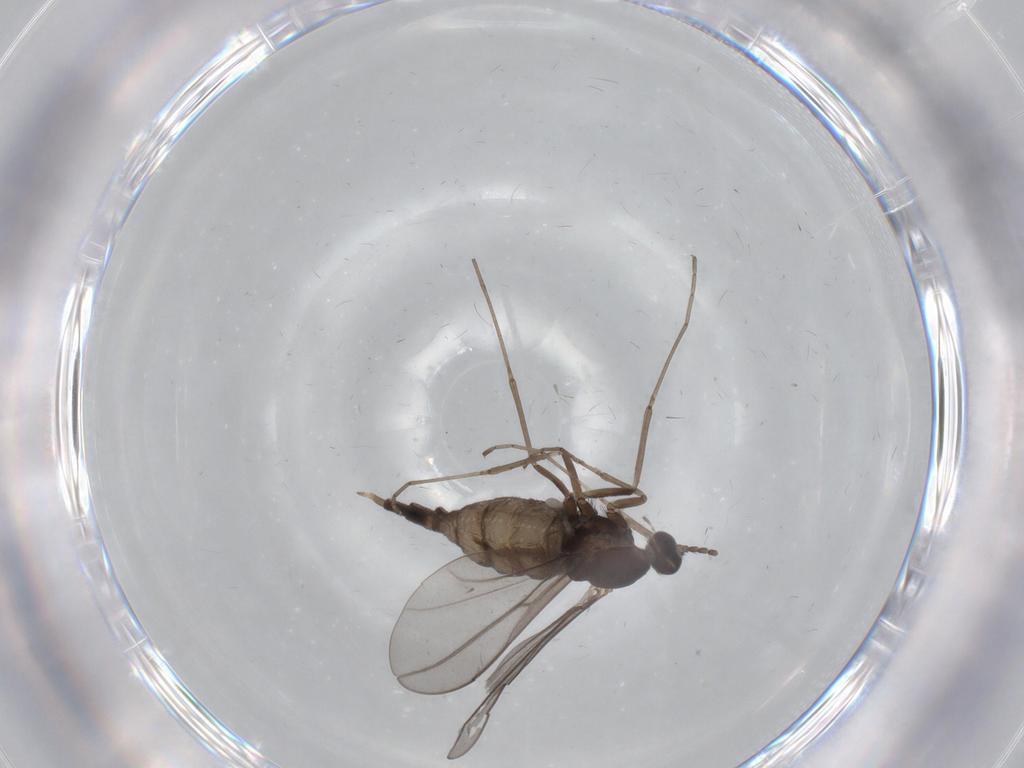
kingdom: Animalia
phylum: Arthropoda
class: Insecta
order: Diptera
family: Cecidomyiidae
